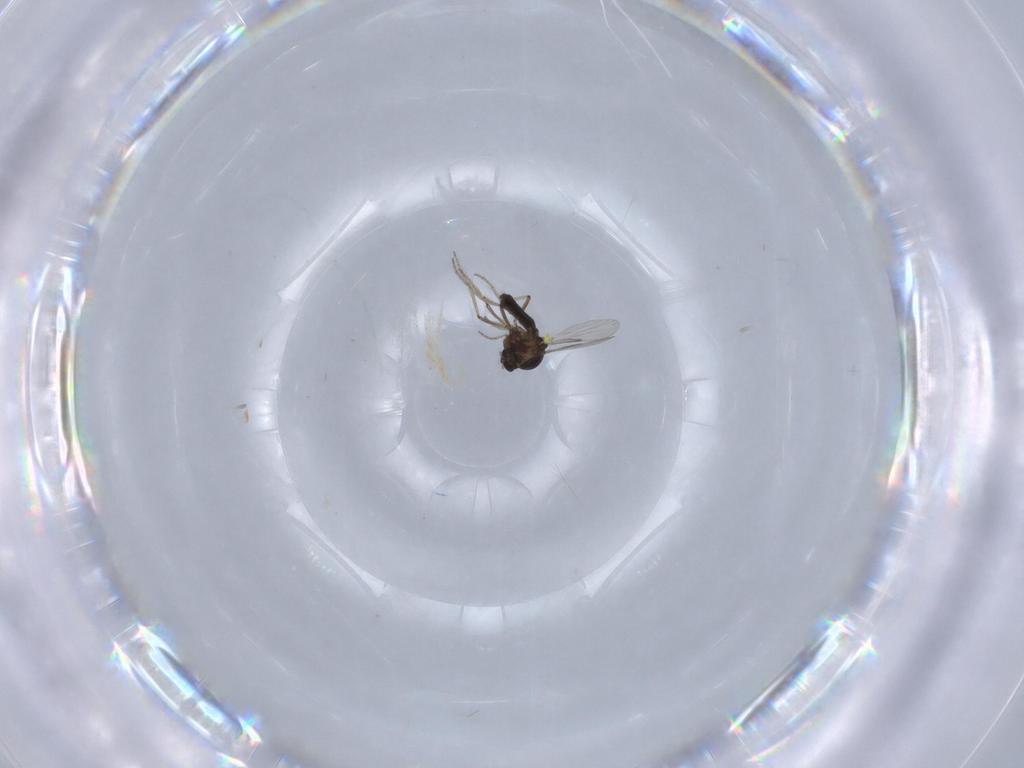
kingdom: Animalia
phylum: Arthropoda
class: Insecta
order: Diptera
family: Ceratopogonidae
